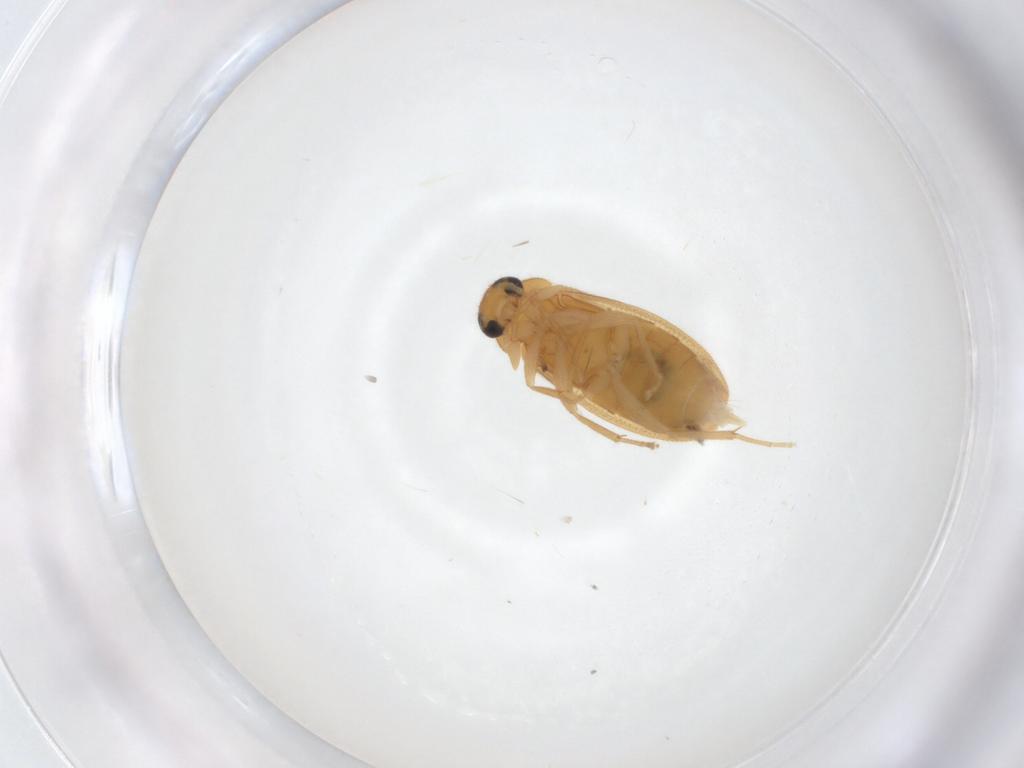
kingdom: Animalia
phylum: Arthropoda
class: Insecta
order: Coleoptera
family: Scraptiidae
